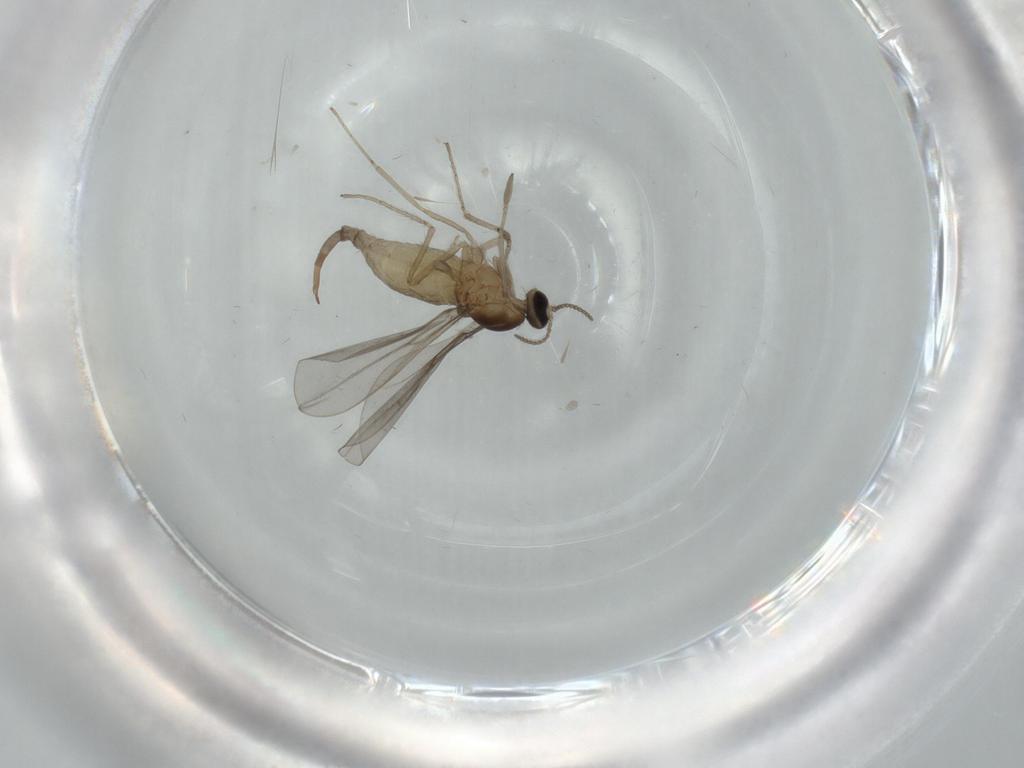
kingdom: Animalia
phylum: Arthropoda
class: Insecta
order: Diptera
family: Cecidomyiidae
